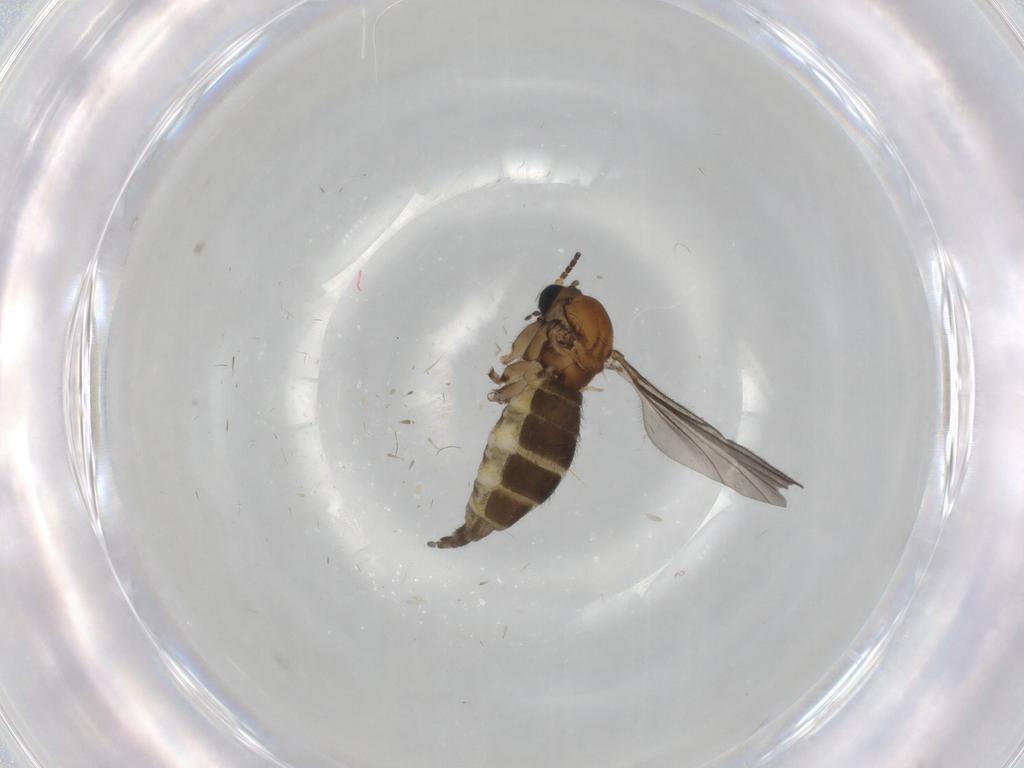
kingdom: Animalia
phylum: Arthropoda
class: Insecta
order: Diptera
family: Sciaridae
